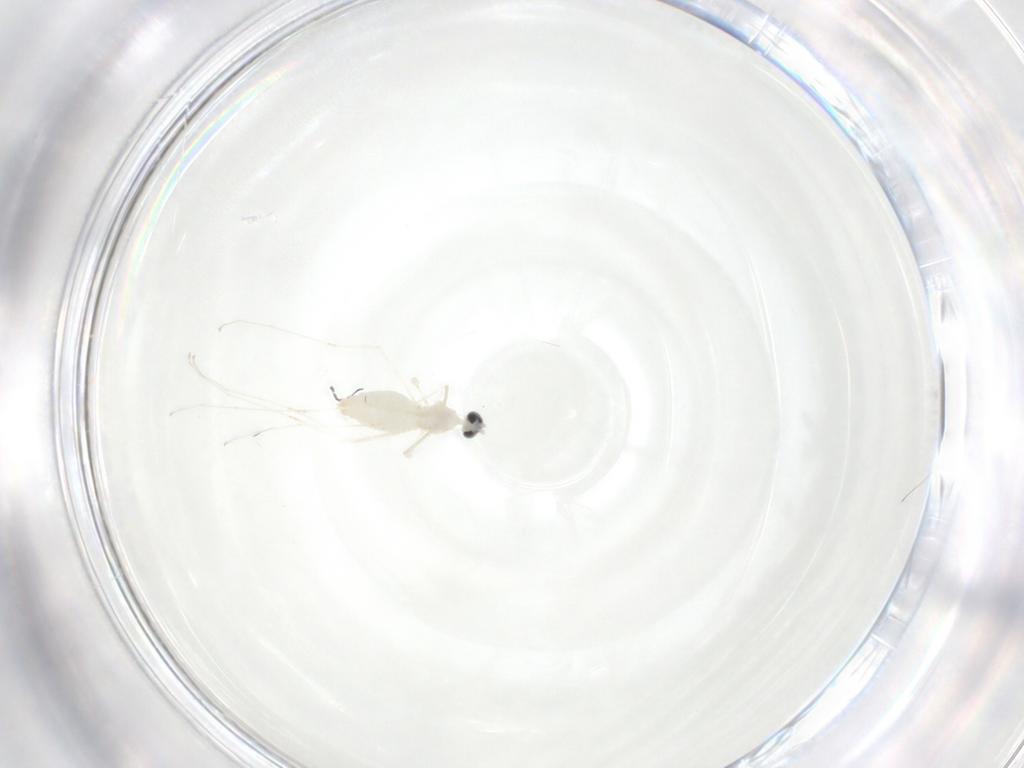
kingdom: Animalia
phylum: Arthropoda
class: Insecta
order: Diptera
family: Cecidomyiidae
